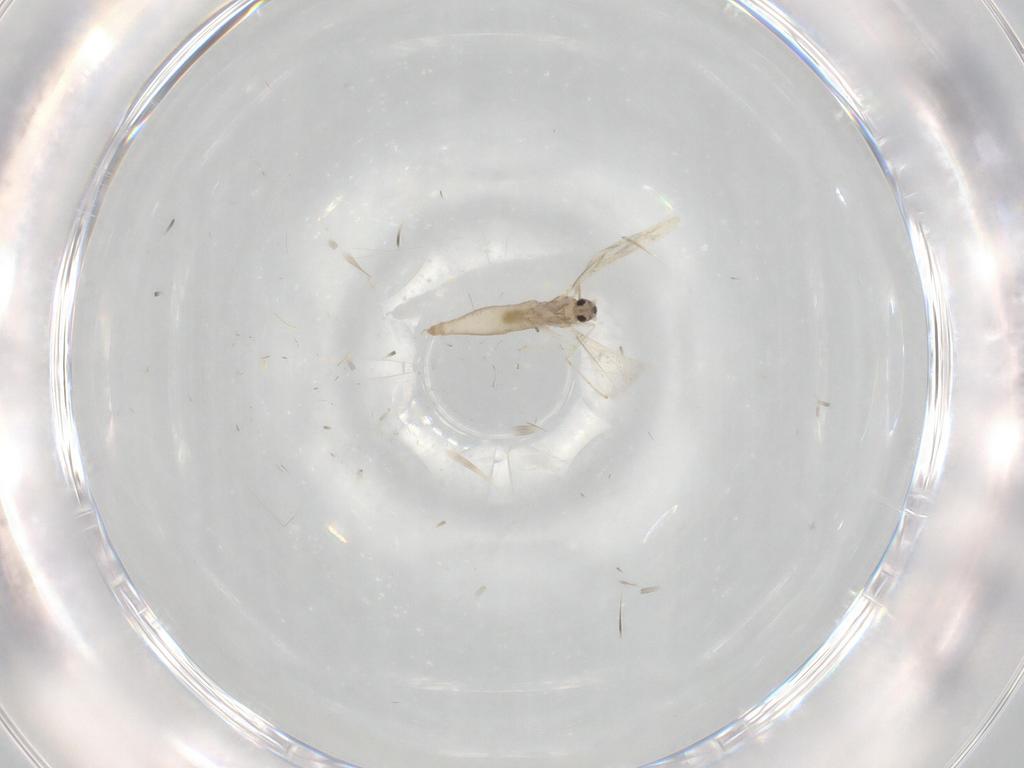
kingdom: Animalia
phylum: Arthropoda
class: Insecta
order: Diptera
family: Cecidomyiidae
